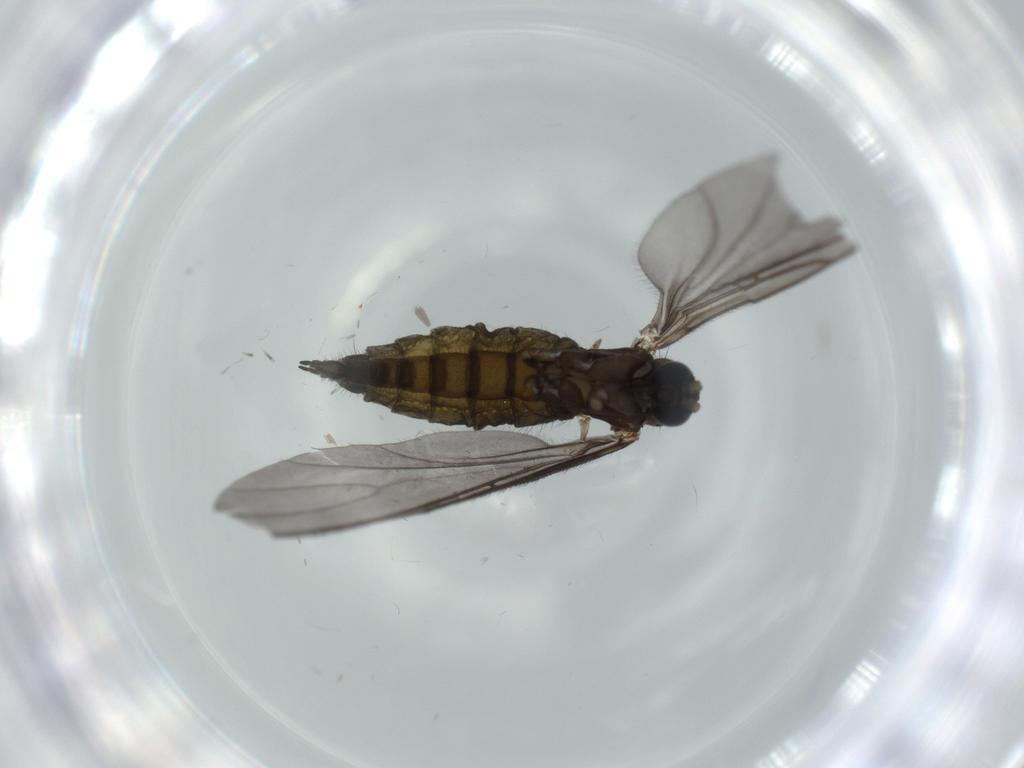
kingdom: Animalia
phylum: Arthropoda
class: Insecta
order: Diptera
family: Sciaridae
